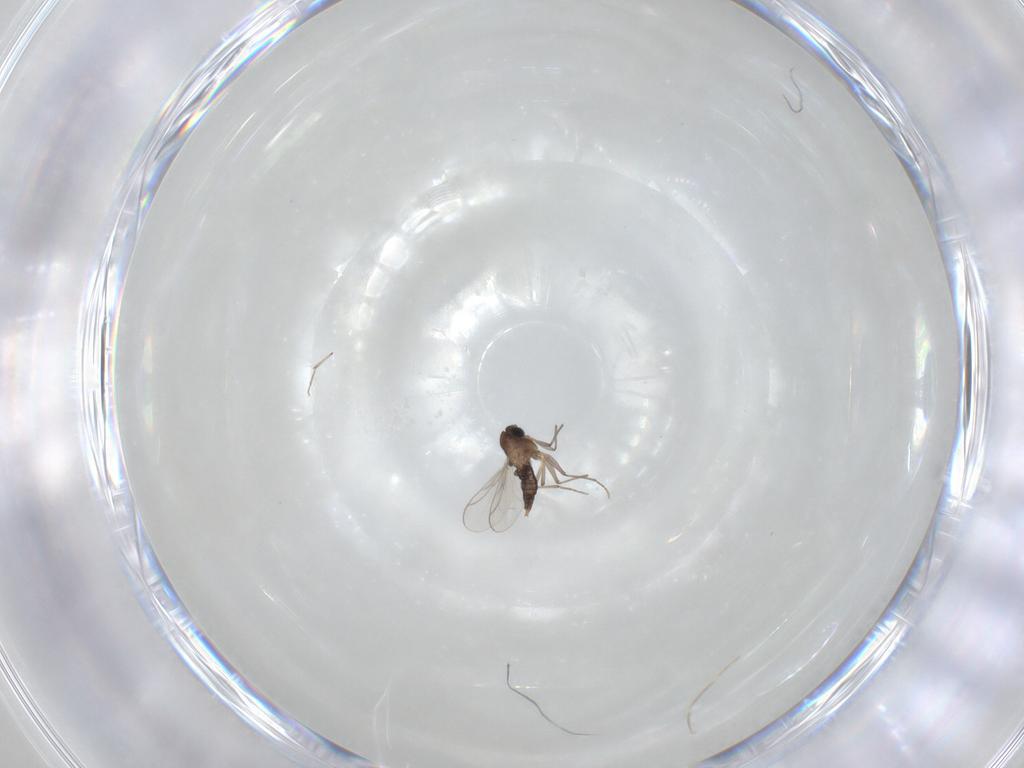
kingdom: Animalia
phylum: Arthropoda
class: Insecta
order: Diptera
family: Chironomidae
